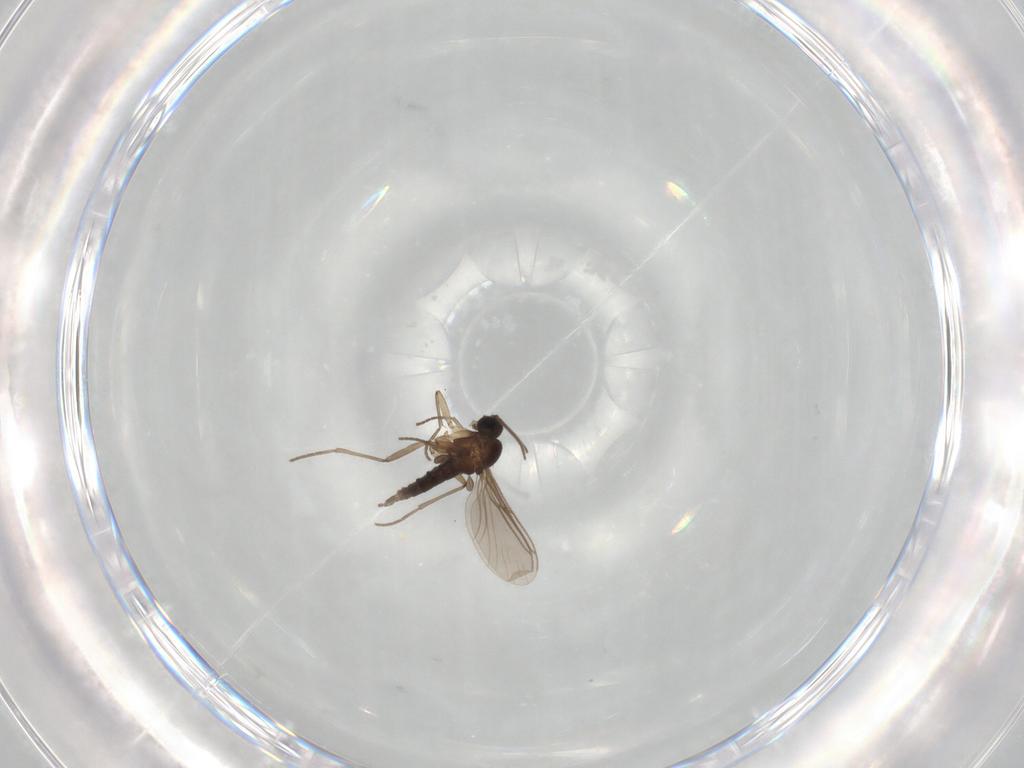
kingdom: Animalia
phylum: Arthropoda
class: Insecta
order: Diptera
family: Sciaridae
